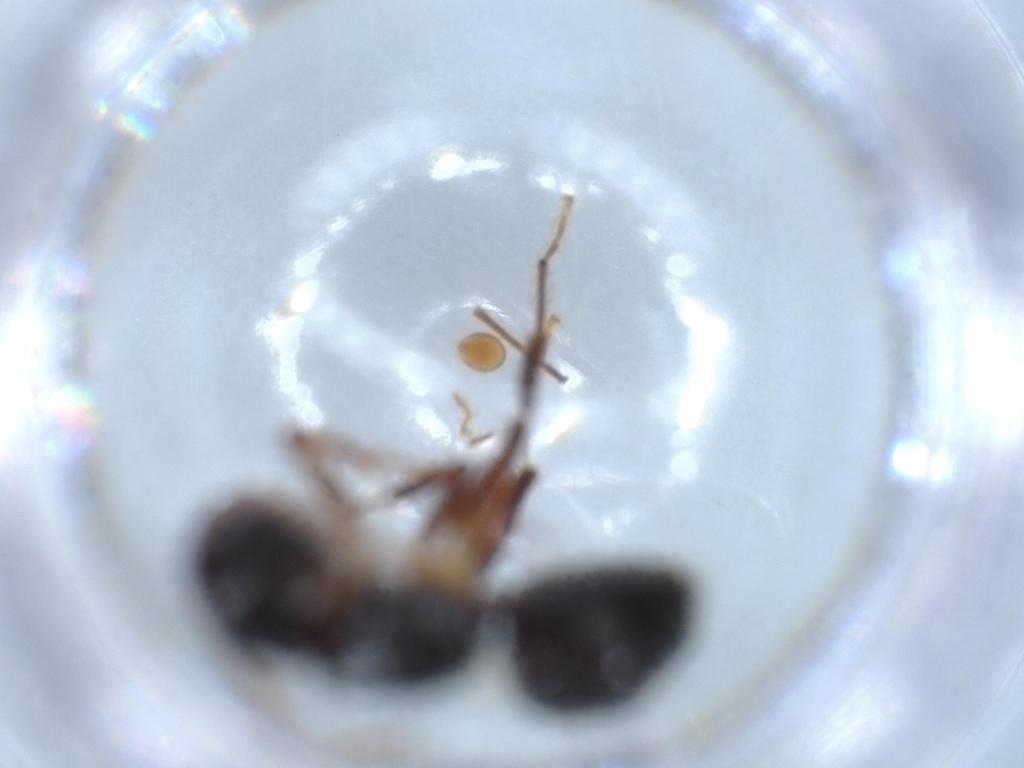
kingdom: Animalia
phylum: Arthropoda
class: Insecta
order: Hymenoptera
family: Formicidae
